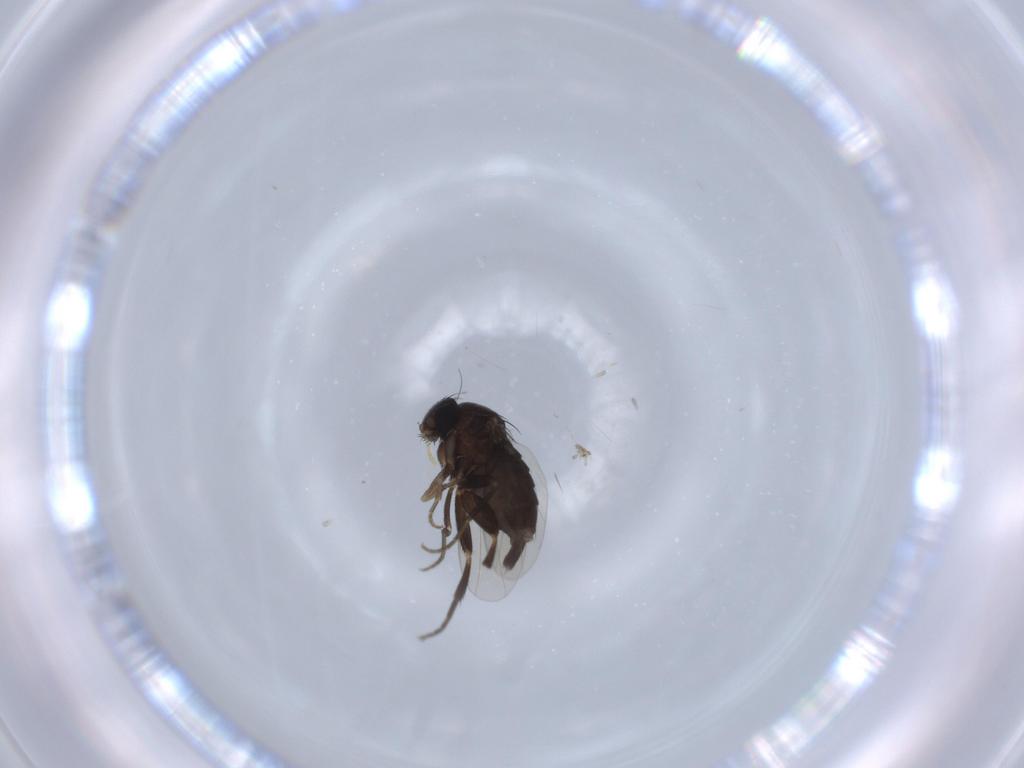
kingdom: Animalia
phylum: Arthropoda
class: Insecta
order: Diptera
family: Phoridae
